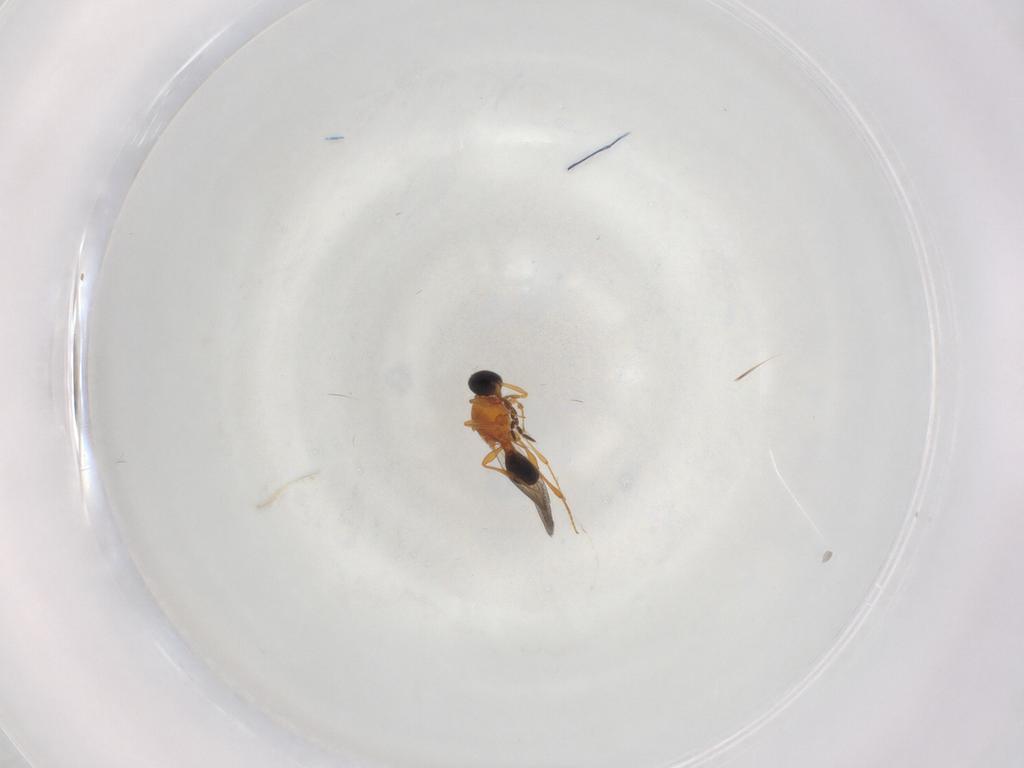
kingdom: Animalia
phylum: Arthropoda
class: Insecta
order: Hymenoptera
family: Platygastridae
